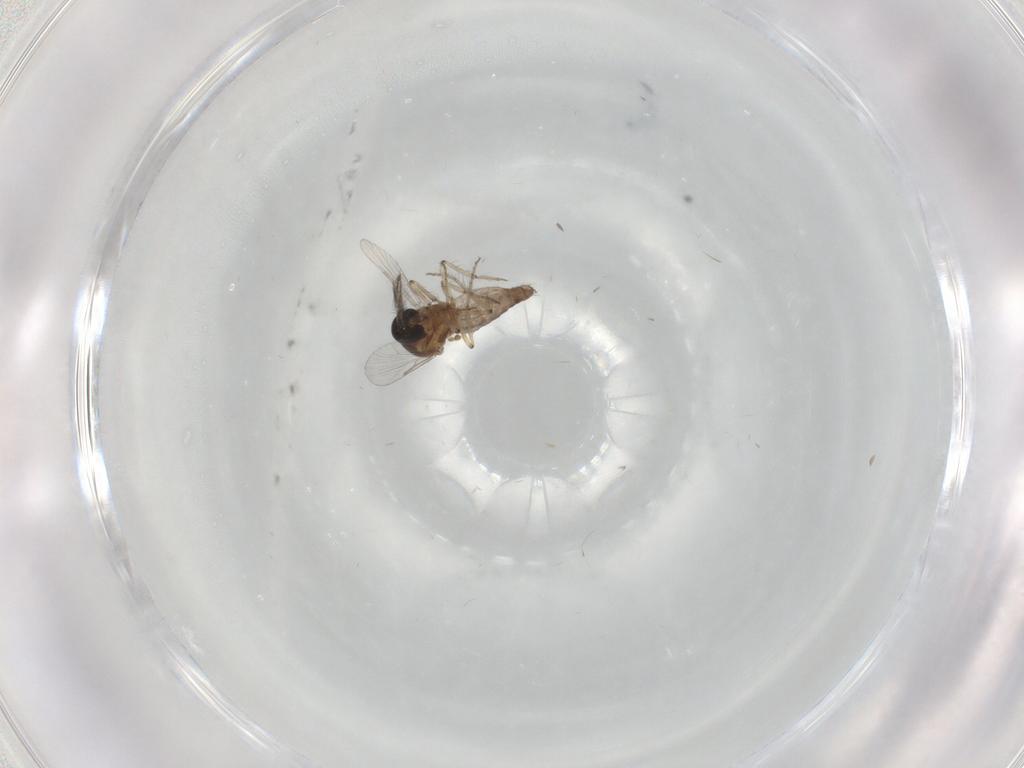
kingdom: Animalia
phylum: Arthropoda
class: Insecta
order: Diptera
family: Ceratopogonidae
